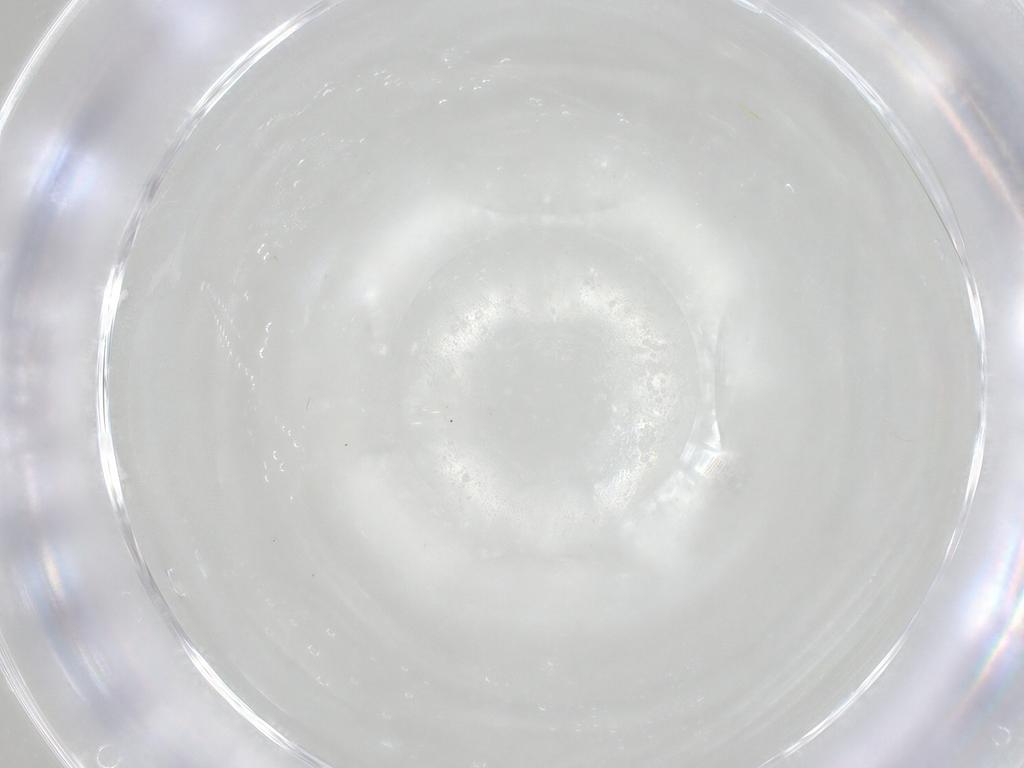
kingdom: Animalia
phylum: Arthropoda
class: Insecta
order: Diptera
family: Cecidomyiidae
